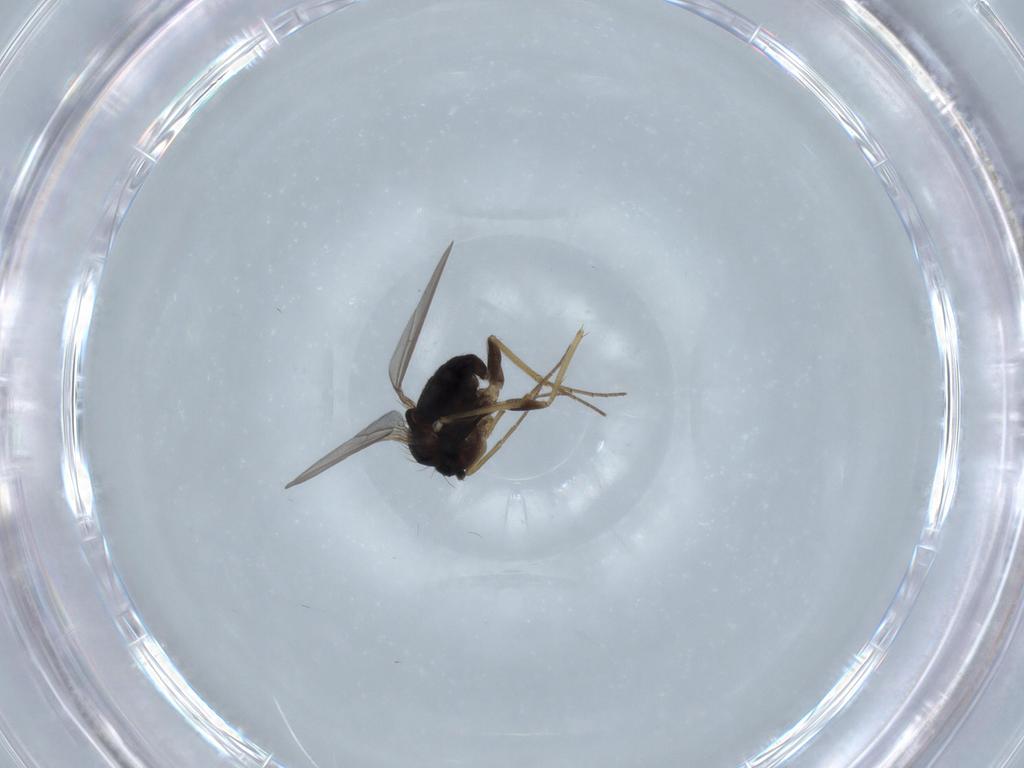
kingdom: Animalia
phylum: Arthropoda
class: Insecta
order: Diptera
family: Dolichopodidae
